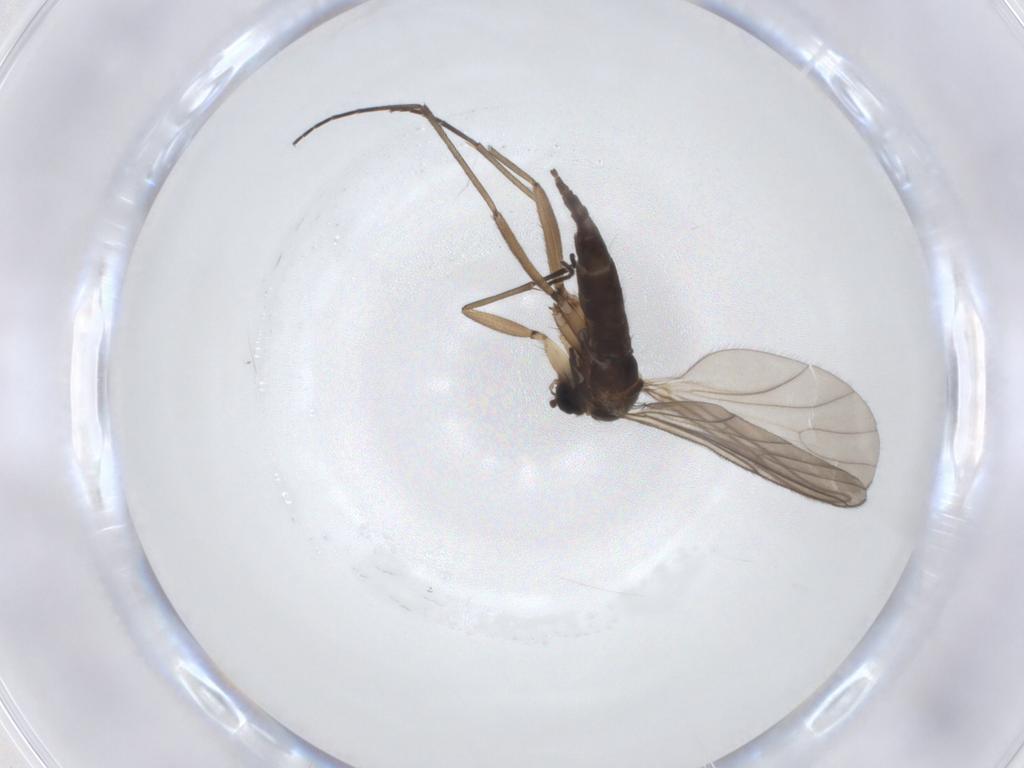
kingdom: Animalia
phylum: Arthropoda
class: Insecta
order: Diptera
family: Sciaridae
